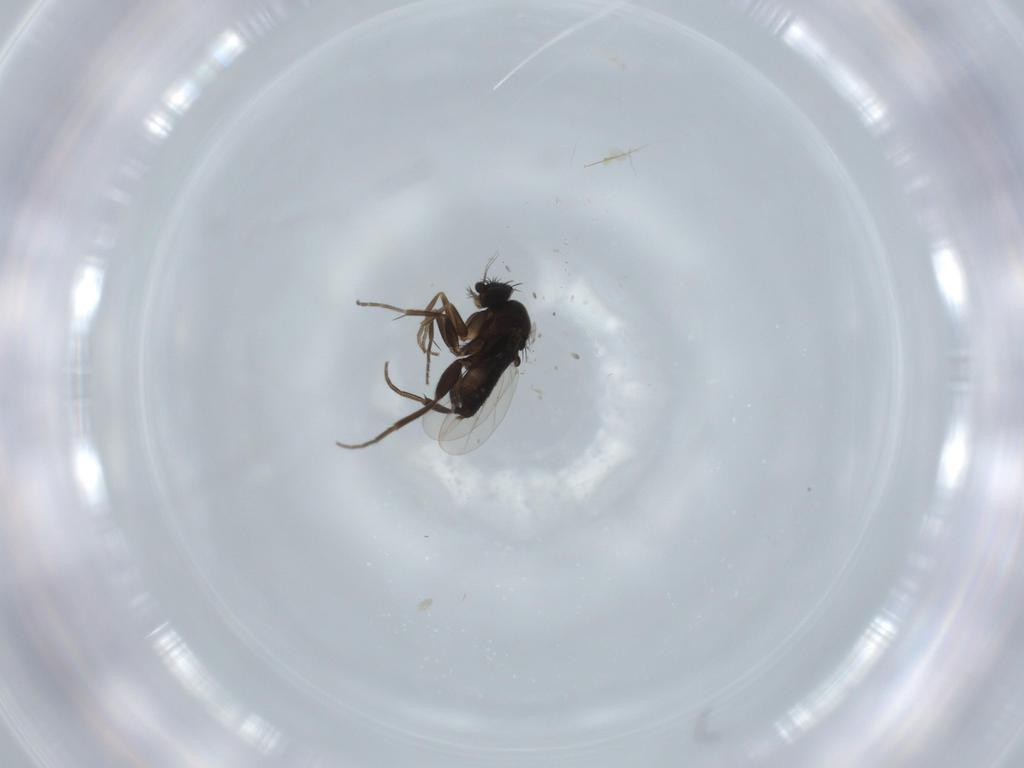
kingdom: Animalia
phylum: Arthropoda
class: Insecta
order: Diptera
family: Phoridae
